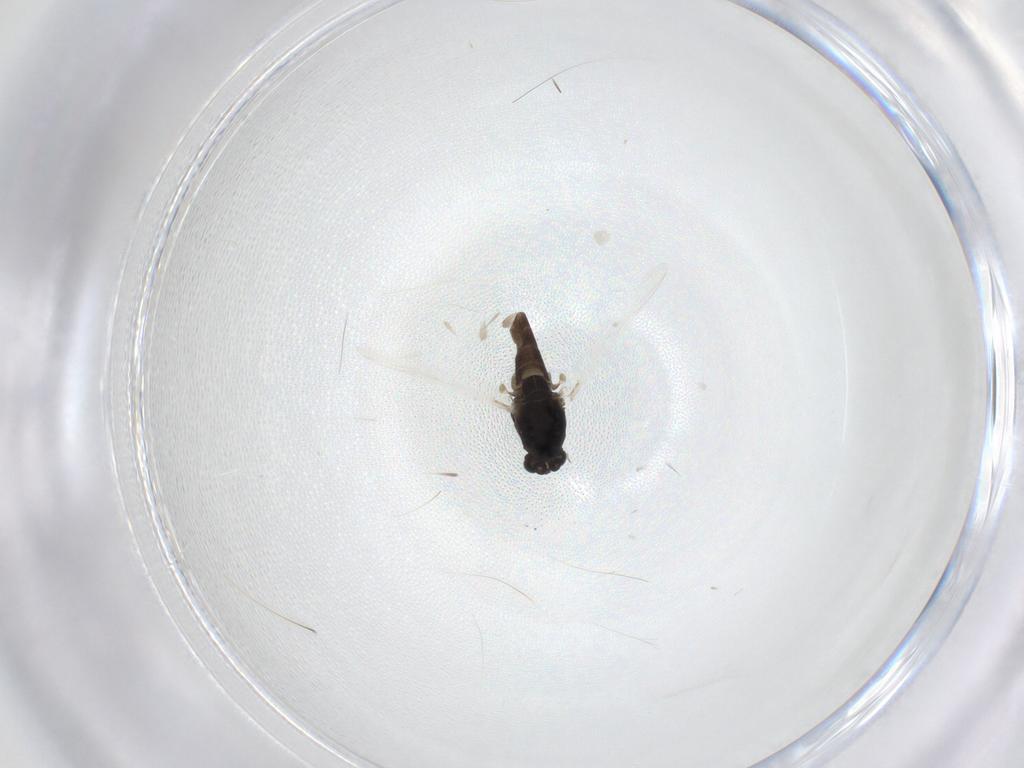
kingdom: Animalia
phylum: Arthropoda
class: Insecta
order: Diptera
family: Chironomidae
